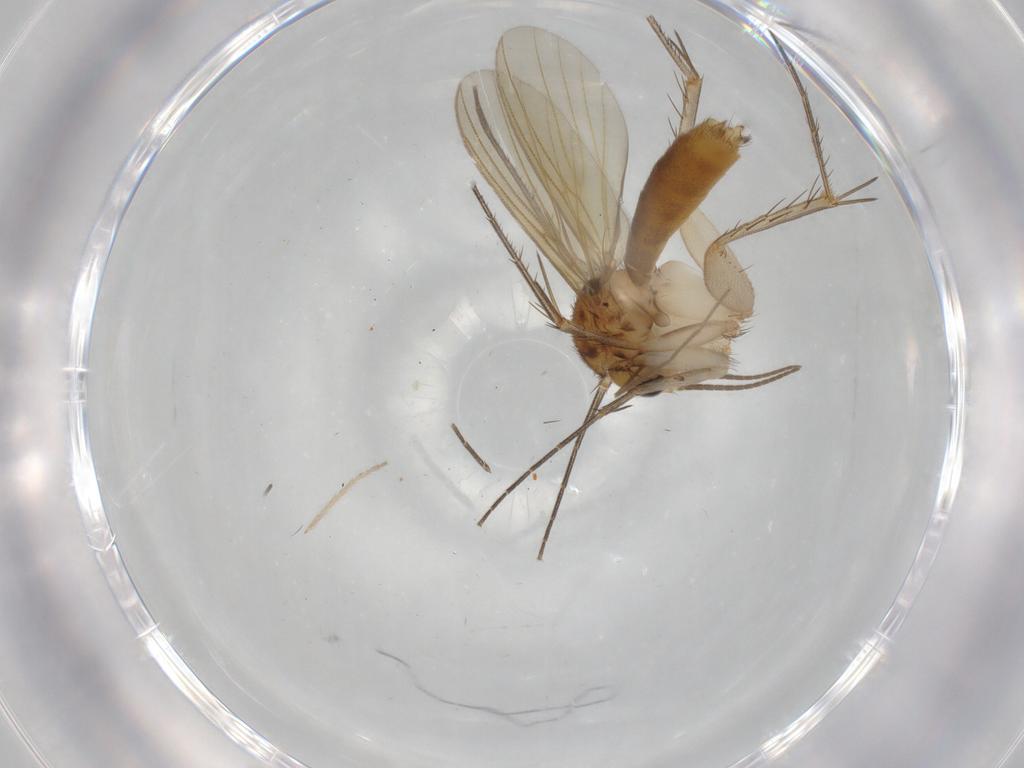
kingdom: Animalia
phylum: Arthropoda
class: Insecta
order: Diptera
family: Mycetophilidae
